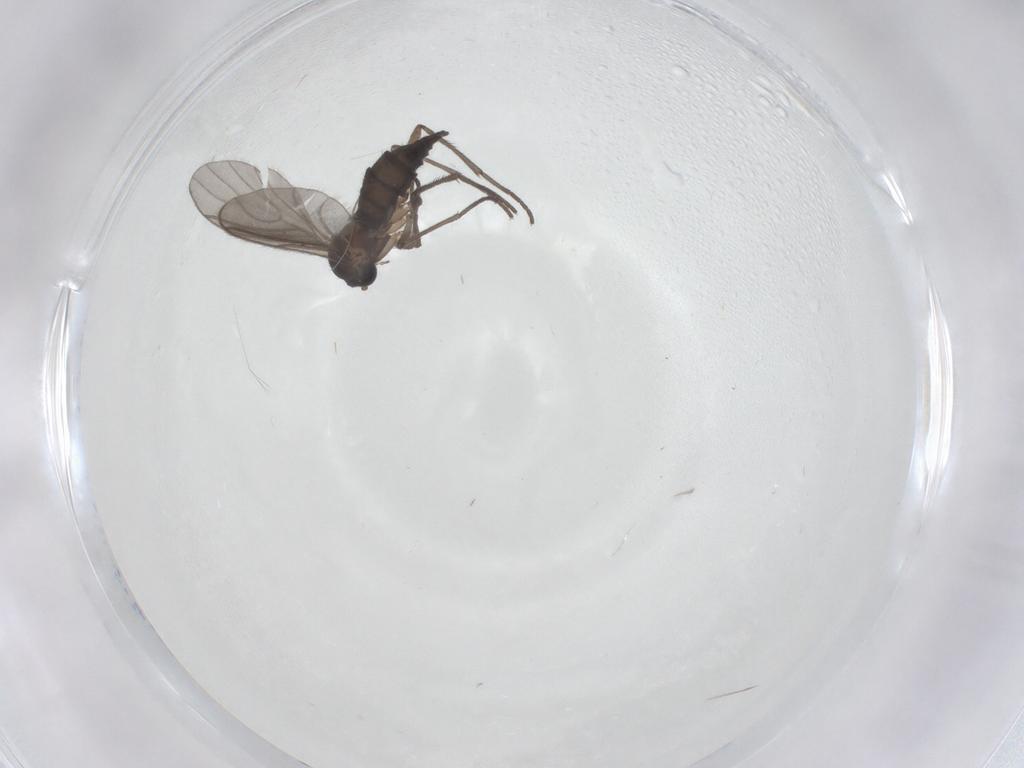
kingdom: Animalia
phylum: Arthropoda
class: Insecta
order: Diptera
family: Sciaridae
